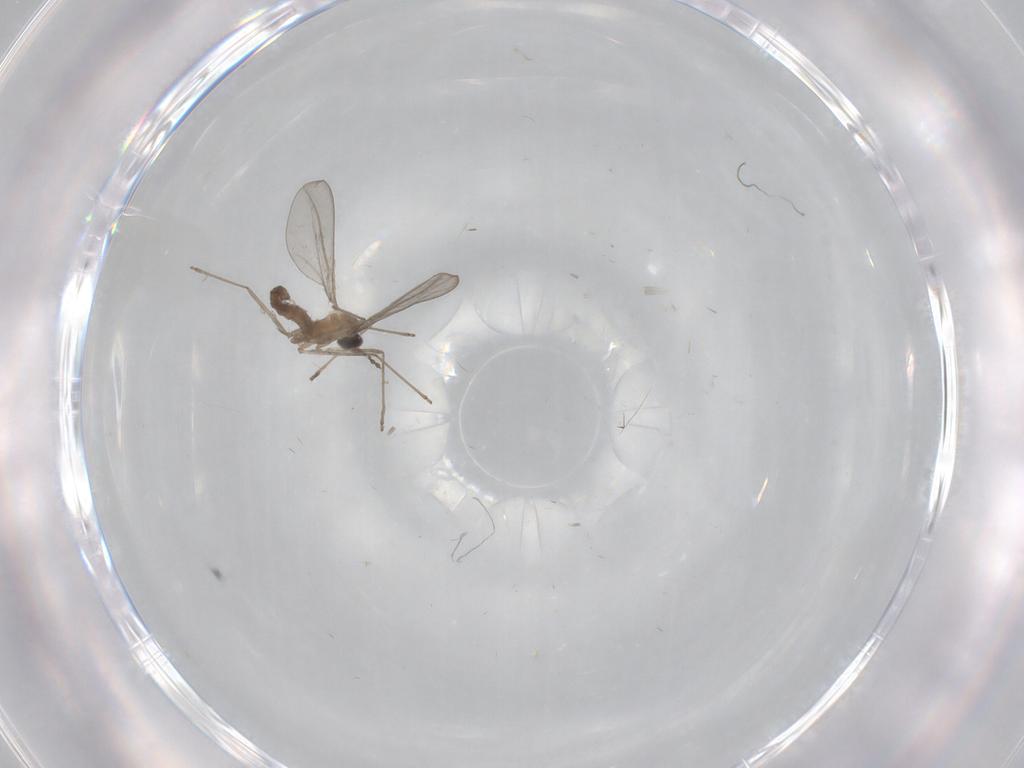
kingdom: Animalia
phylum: Arthropoda
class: Insecta
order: Diptera
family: Cecidomyiidae
